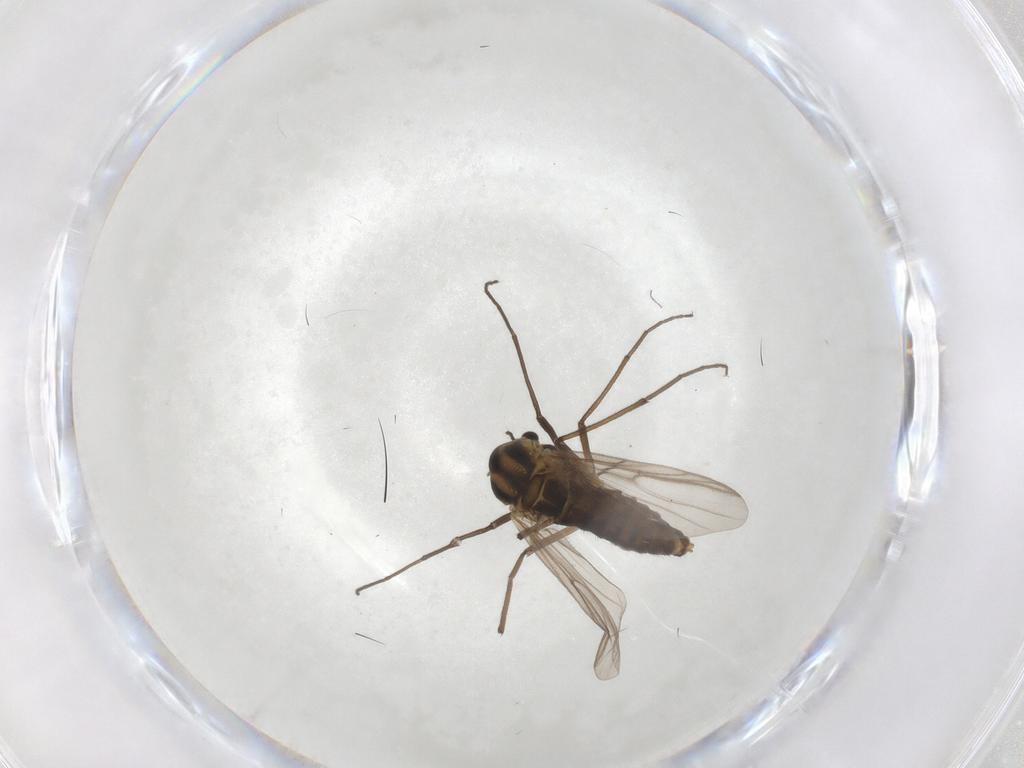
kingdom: Animalia
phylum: Arthropoda
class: Insecta
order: Diptera
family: Chironomidae
